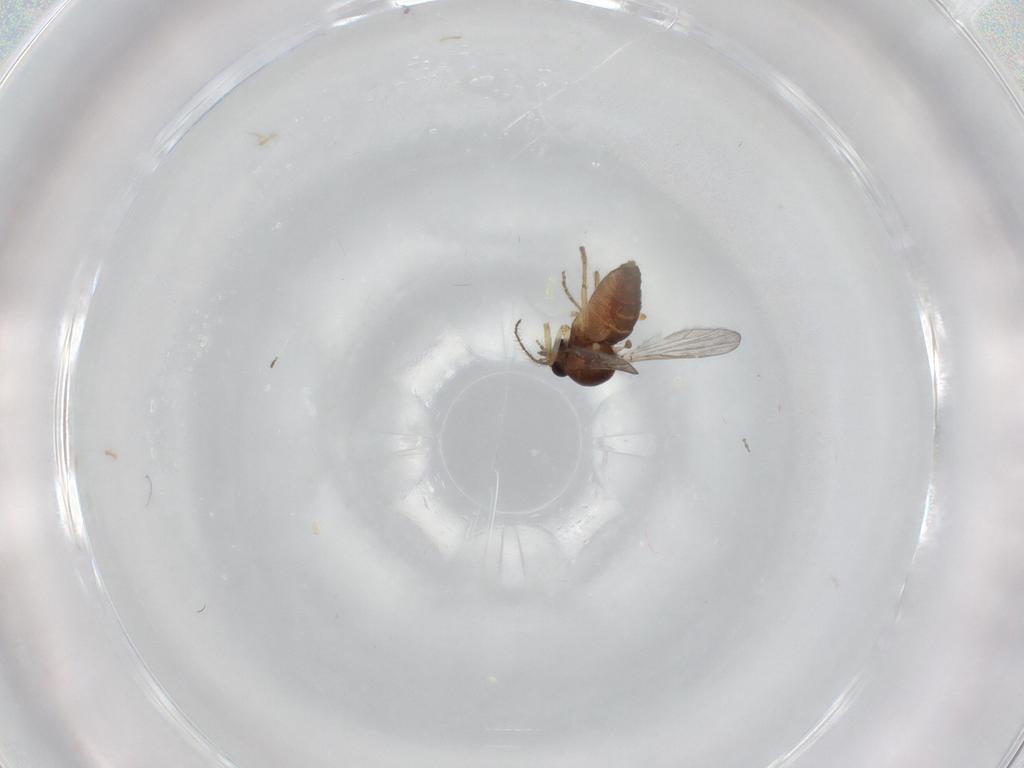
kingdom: Animalia
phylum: Arthropoda
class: Insecta
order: Diptera
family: Ceratopogonidae
